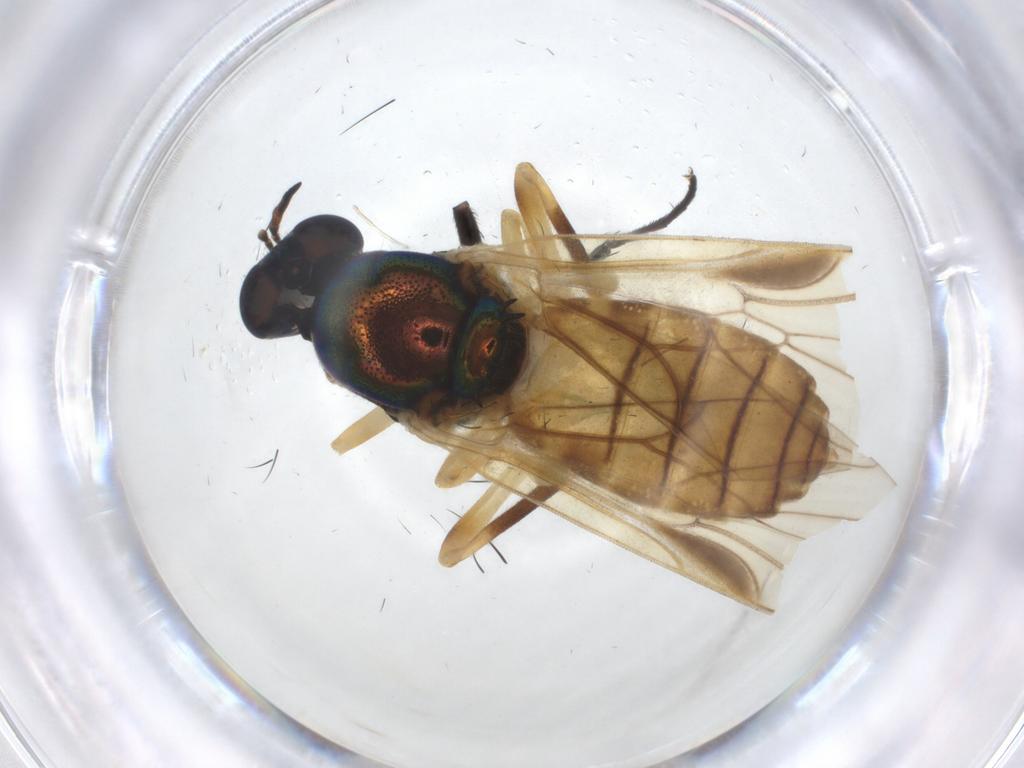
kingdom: Animalia
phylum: Arthropoda
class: Insecta
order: Diptera
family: Stratiomyidae
